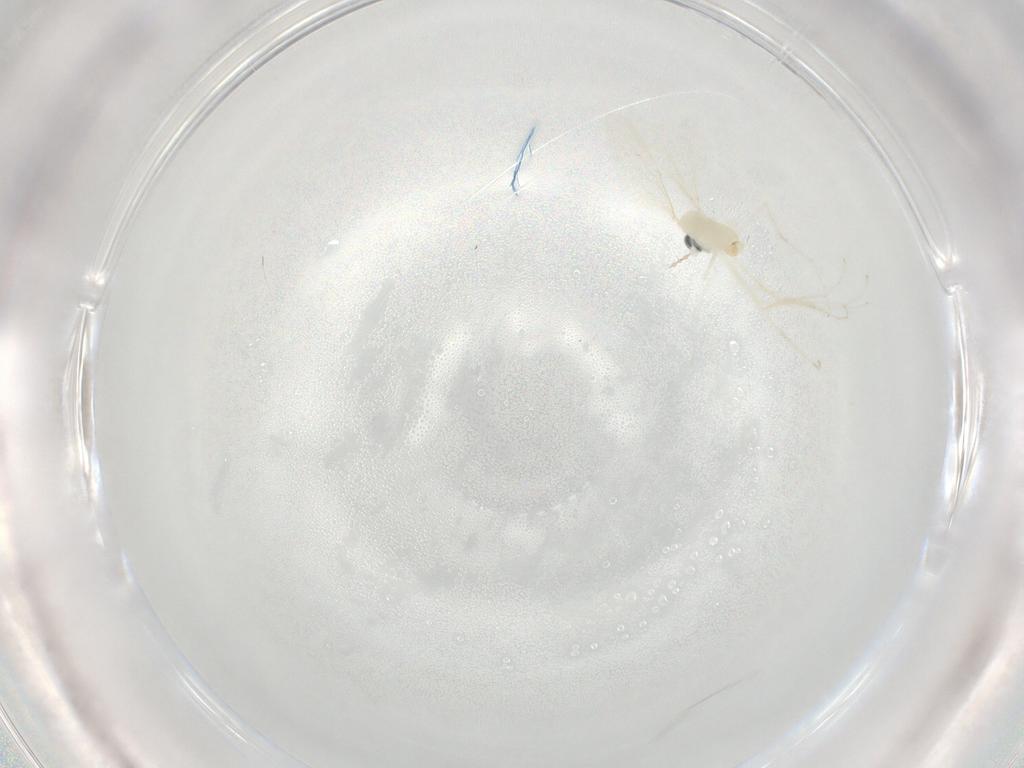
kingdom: Animalia
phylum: Arthropoda
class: Insecta
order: Diptera
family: Cecidomyiidae
